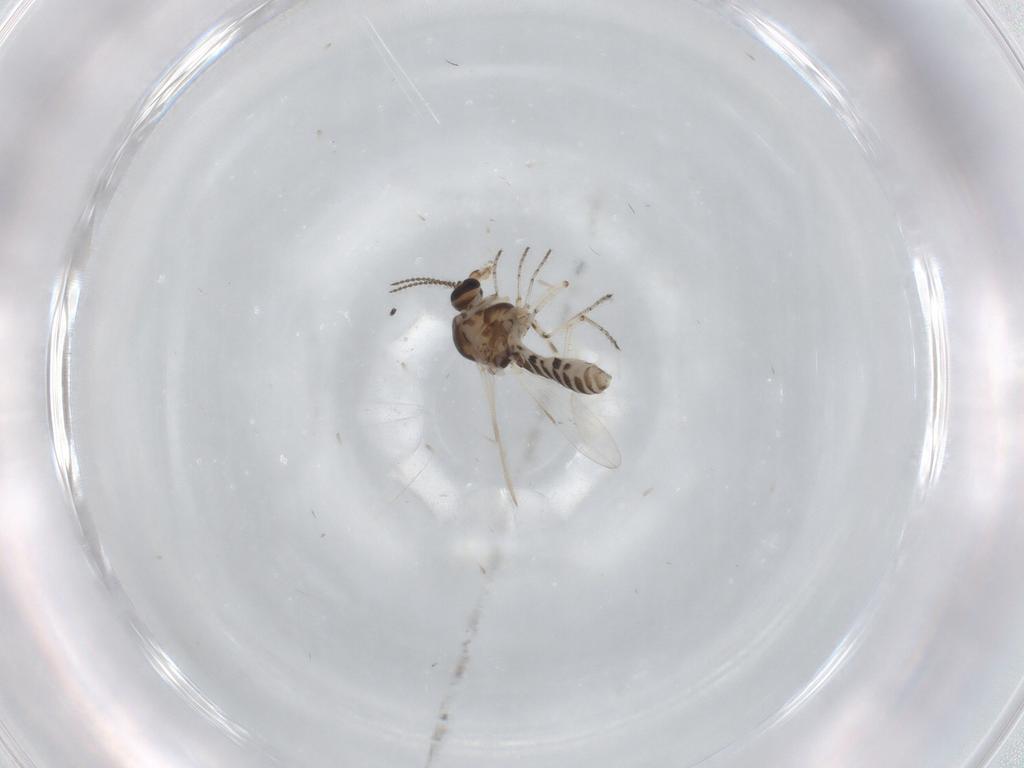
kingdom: Animalia
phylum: Arthropoda
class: Insecta
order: Diptera
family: Ceratopogonidae
